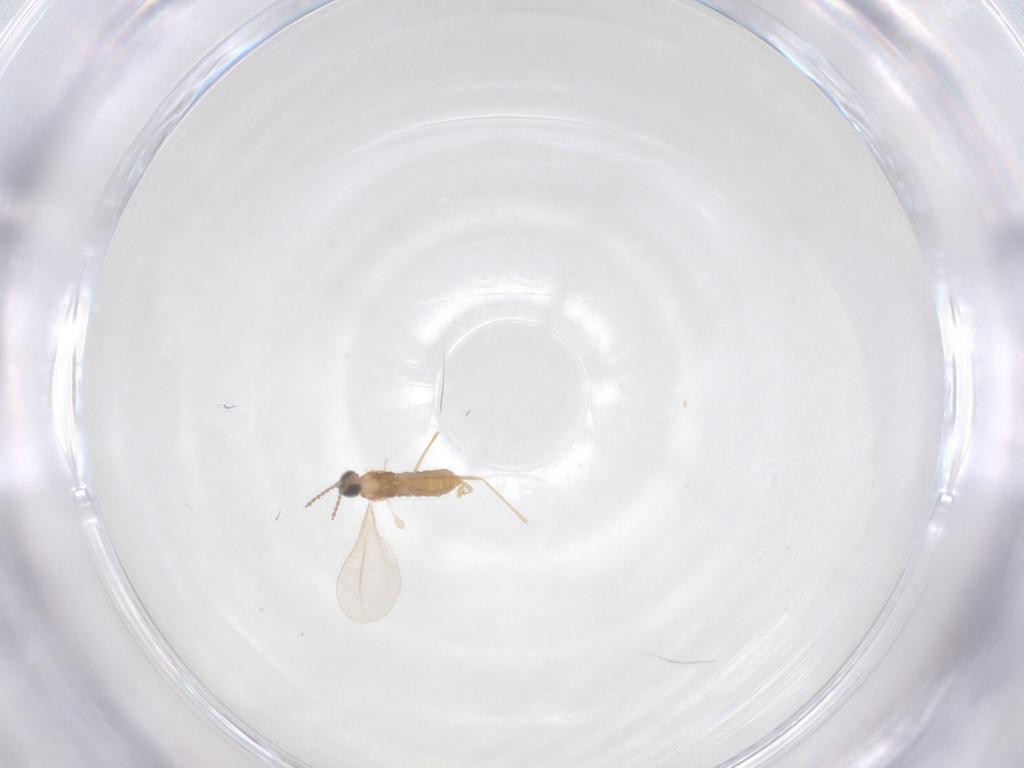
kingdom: Animalia
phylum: Arthropoda
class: Insecta
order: Diptera
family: Cecidomyiidae
